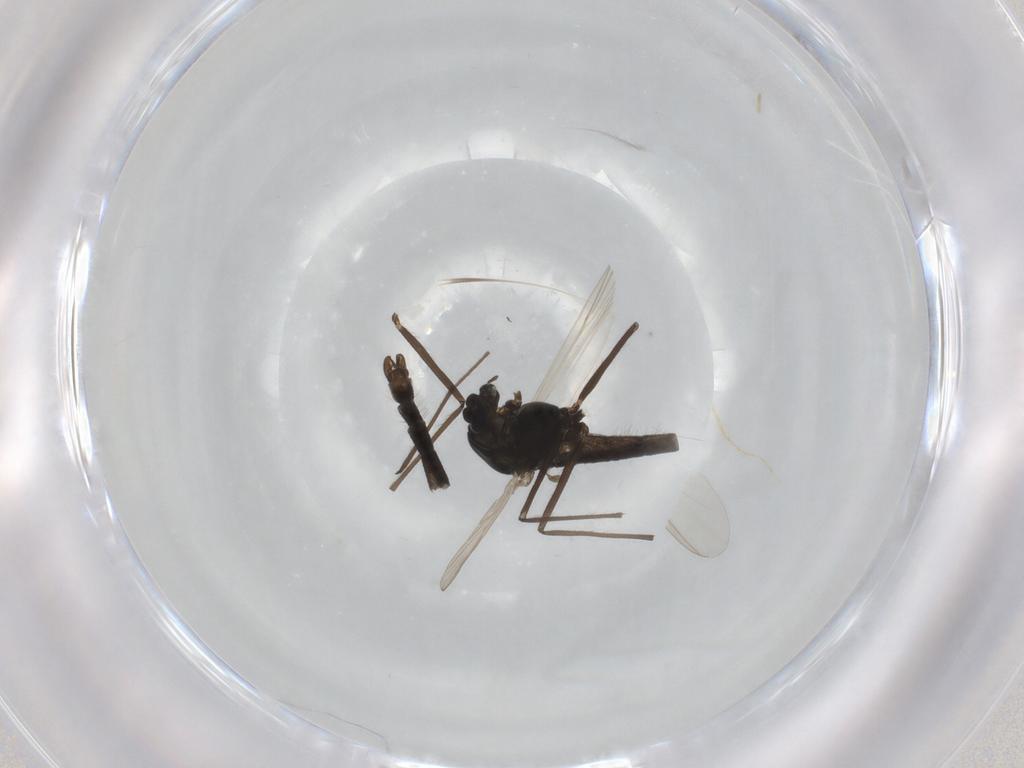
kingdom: Animalia
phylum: Arthropoda
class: Insecta
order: Diptera
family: Chironomidae
